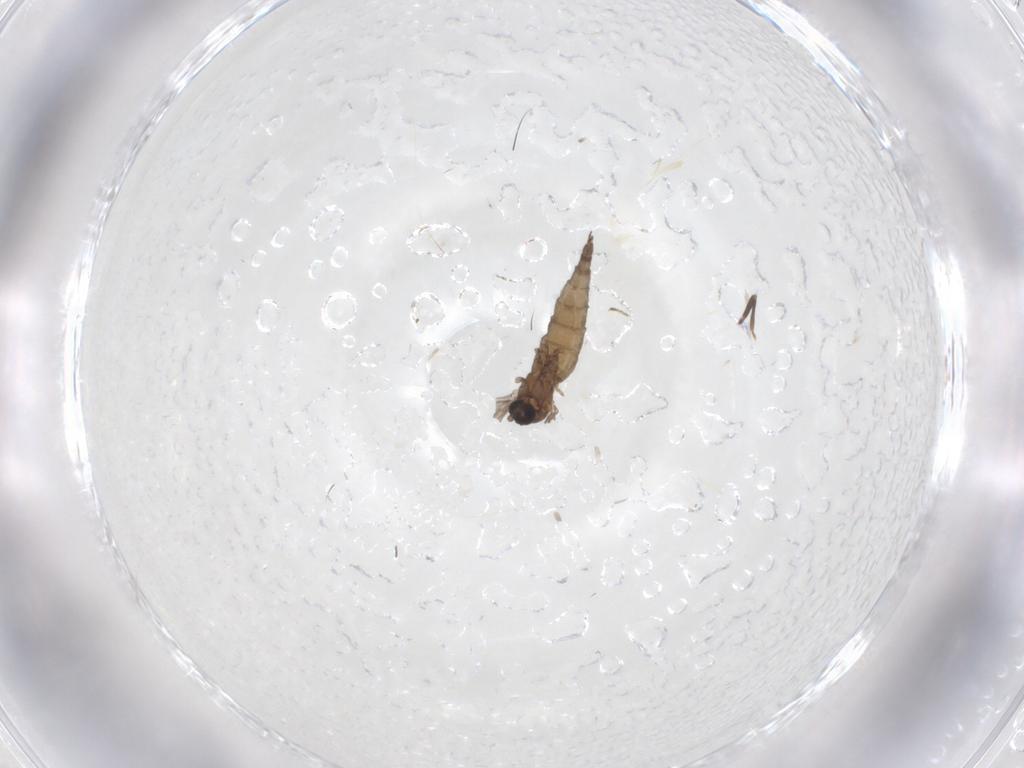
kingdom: Animalia
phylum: Arthropoda
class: Insecta
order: Diptera
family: Sciaridae
